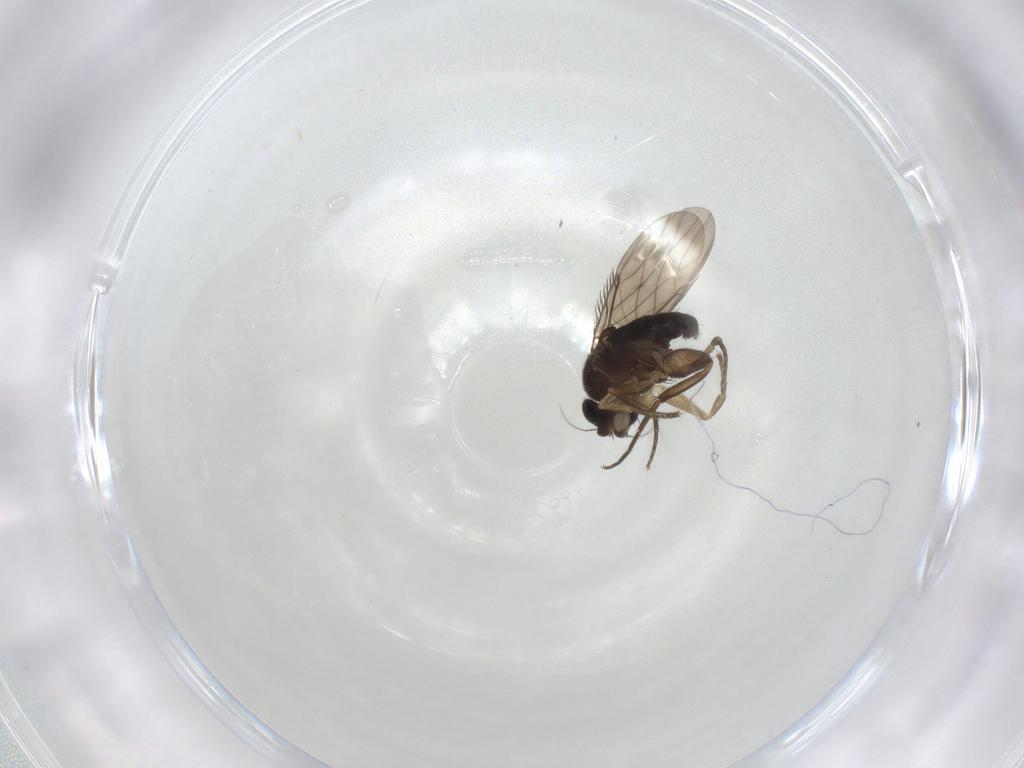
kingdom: Animalia
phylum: Arthropoda
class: Insecta
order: Diptera
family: Phoridae
